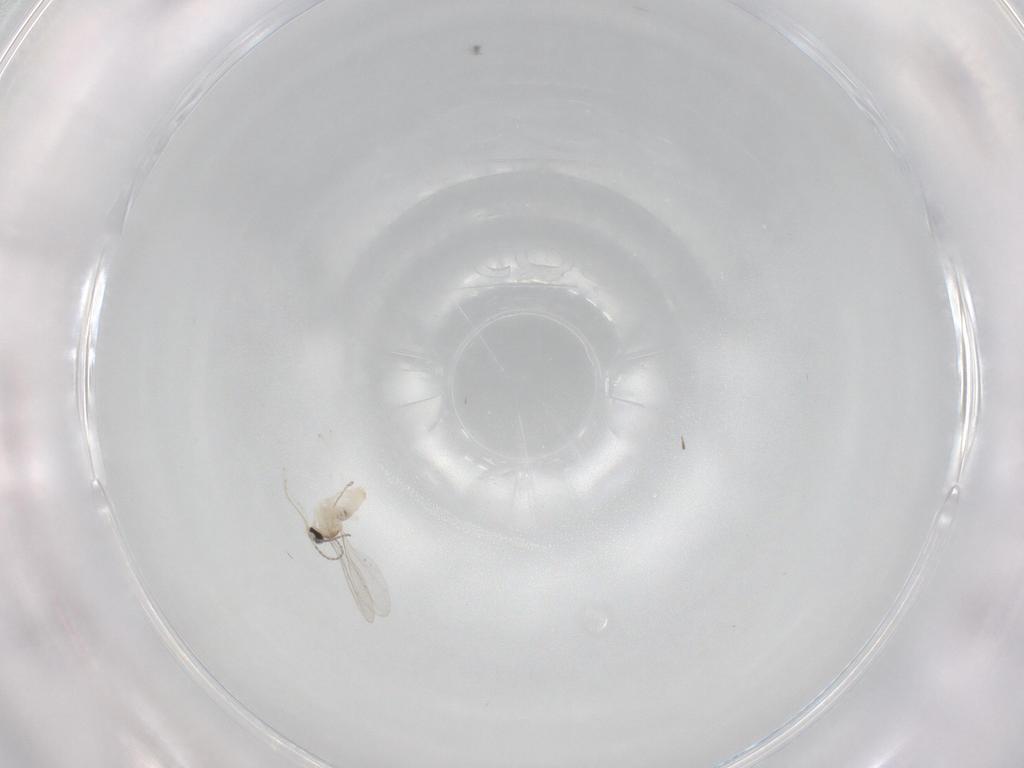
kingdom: Animalia
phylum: Arthropoda
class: Insecta
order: Diptera
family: Cecidomyiidae
